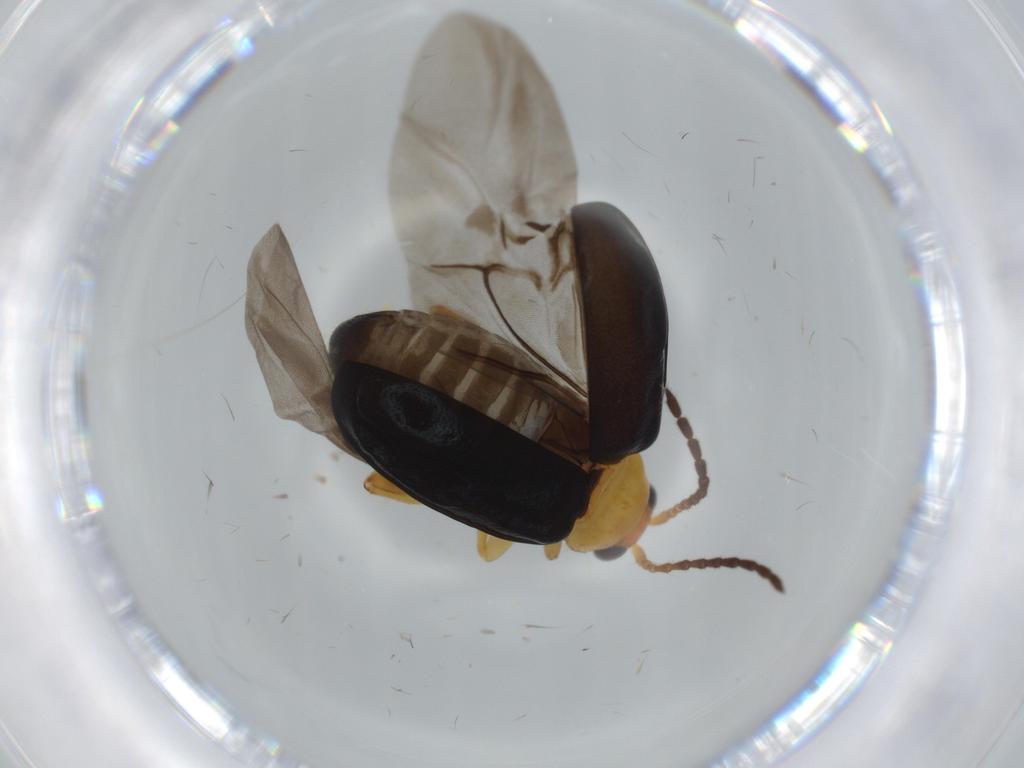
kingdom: Animalia
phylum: Arthropoda
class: Insecta
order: Coleoptera
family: Chrysomelidae
